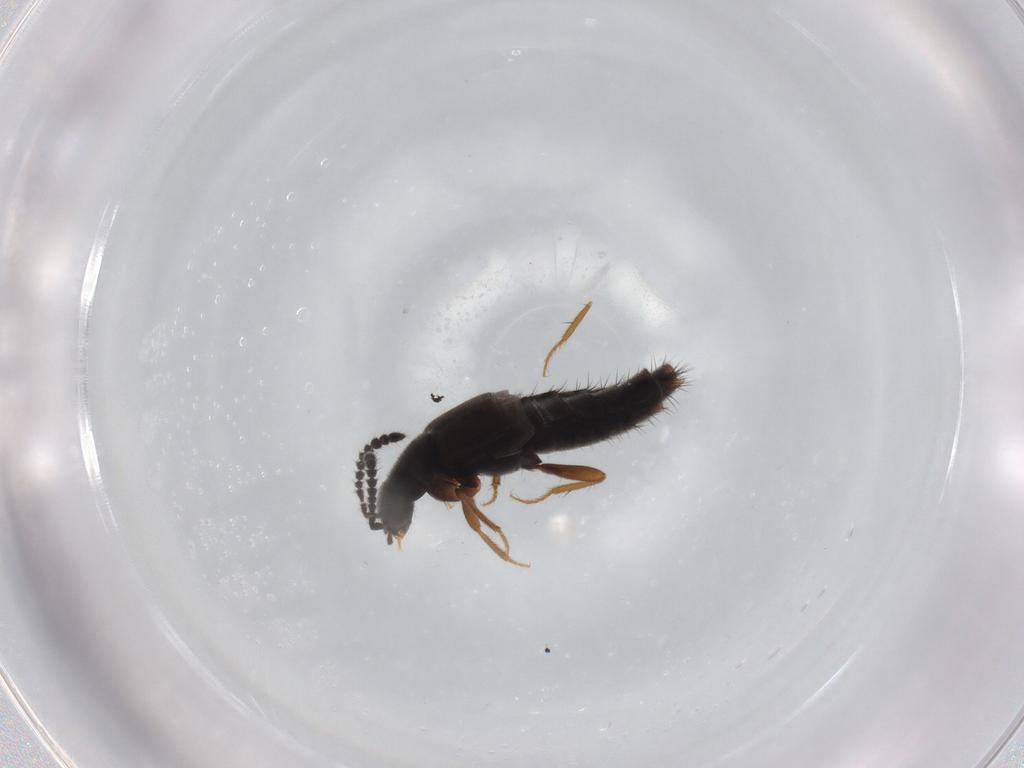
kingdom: Animalia
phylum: Arthropoda
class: Insecta
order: Coleoptera
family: Staphylinidae
